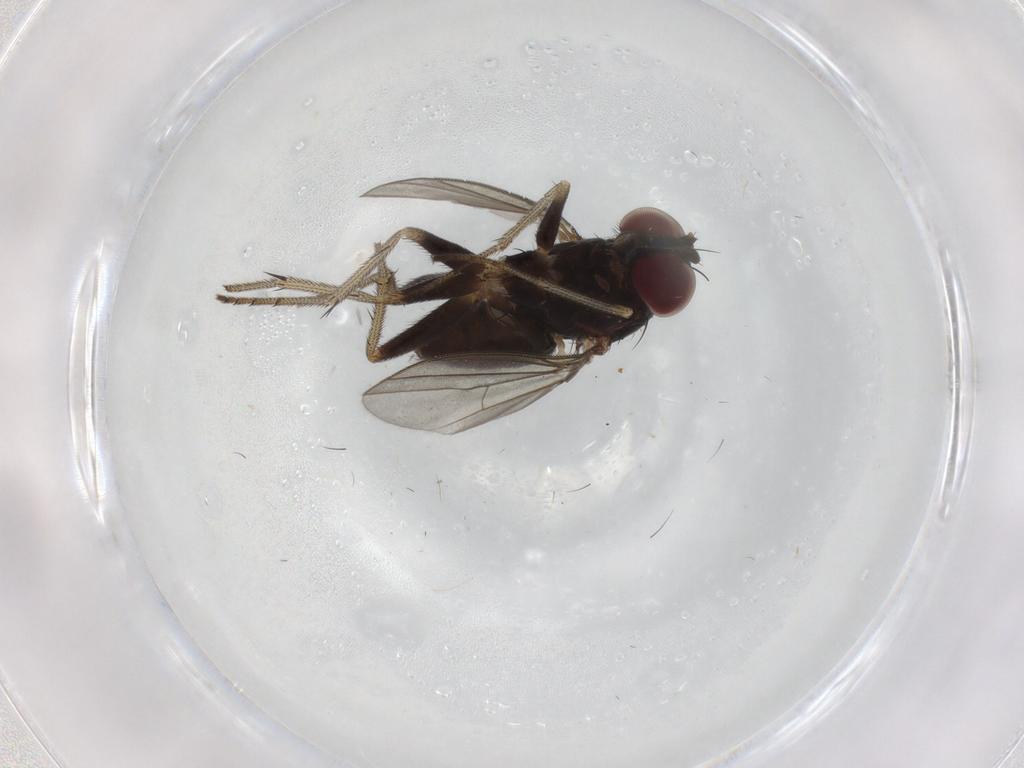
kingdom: Animalia
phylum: Arthropoda
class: Insecta
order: Diptera
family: Dolichopodidae
